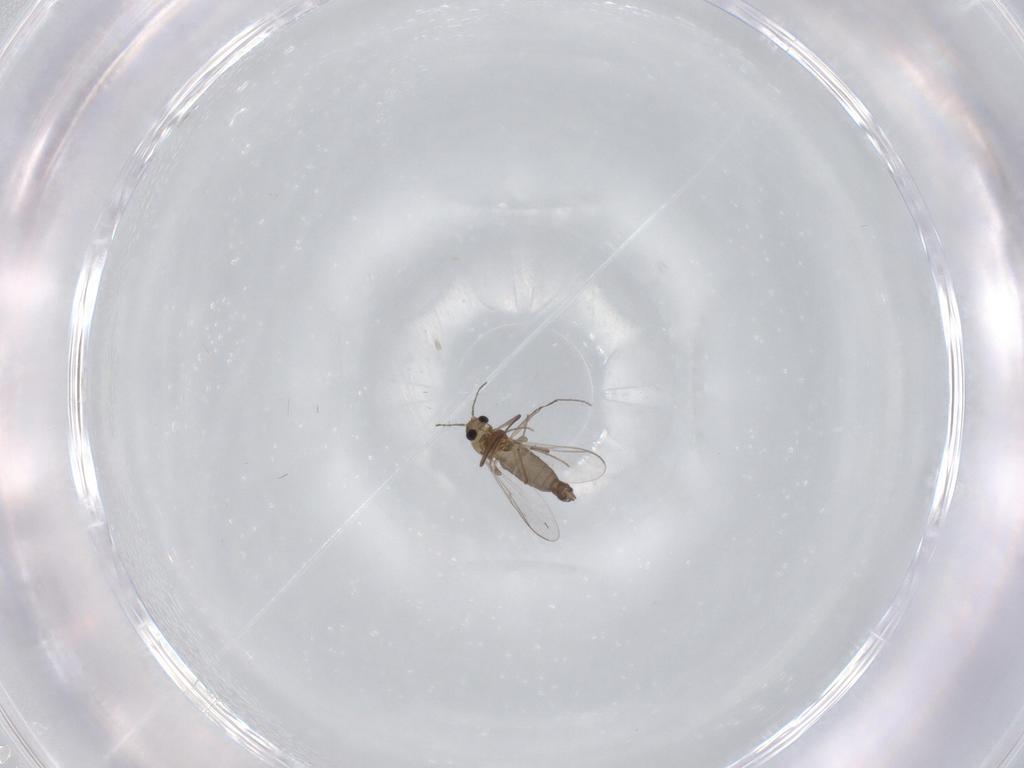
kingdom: Animalia
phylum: Arthropoda
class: Insecta
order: Diptera
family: Chironomidae
